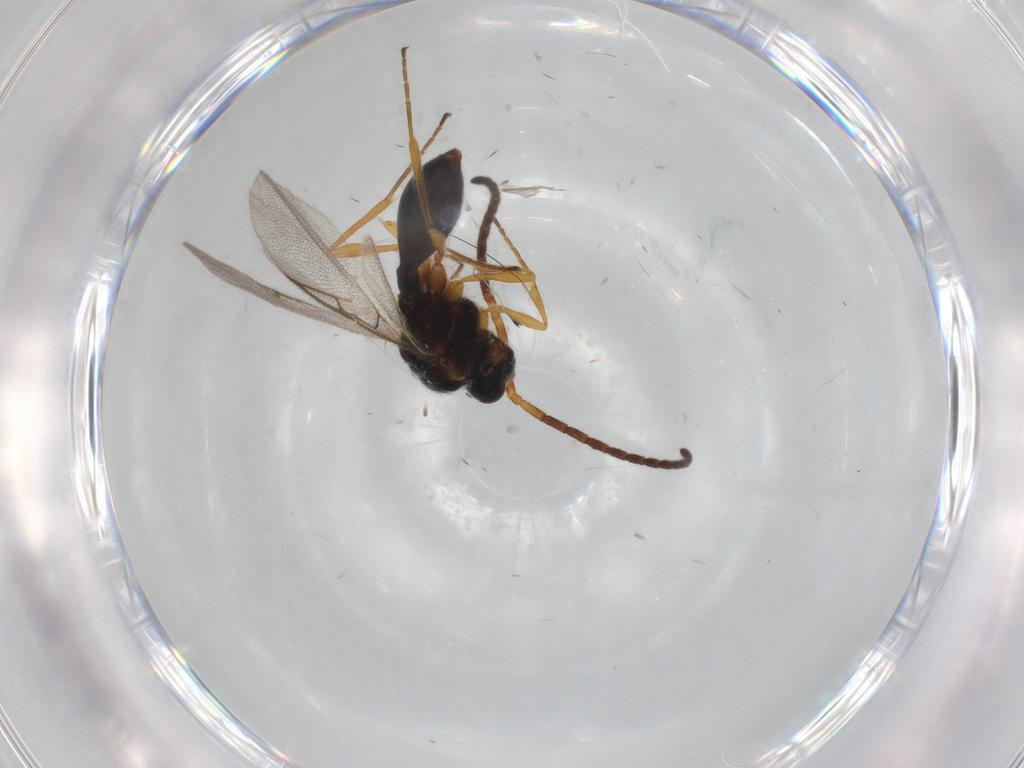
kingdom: Animalia
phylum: Arthropoda
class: Insecta
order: Hymenoptera
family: Diapriidae
